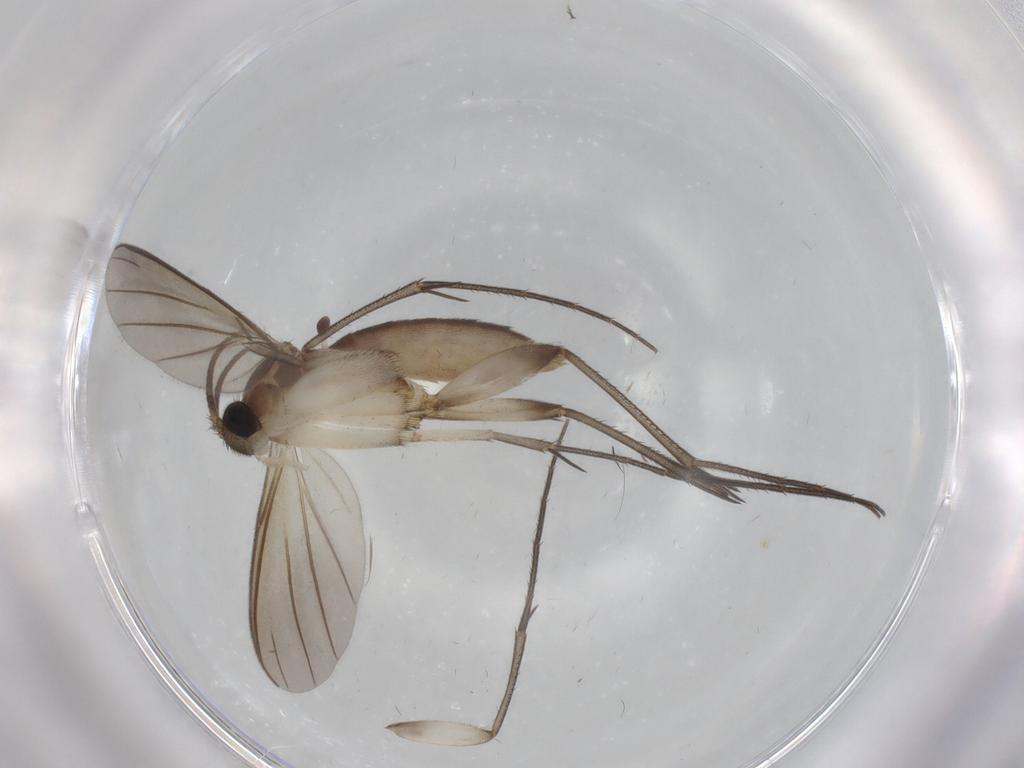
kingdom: Animalia
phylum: Arthropoda
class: Insecta
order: Diptera
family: Mycetophilidae
